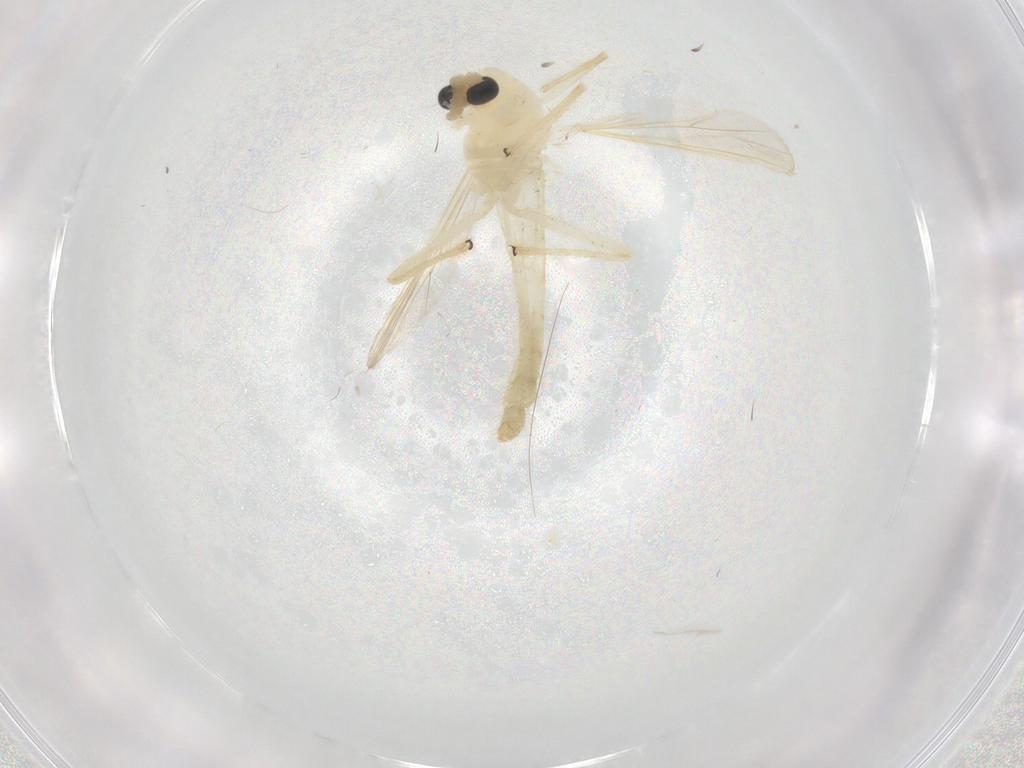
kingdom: Animalia
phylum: Arthropoda
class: Insecta
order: Diptera
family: Chironomidae
